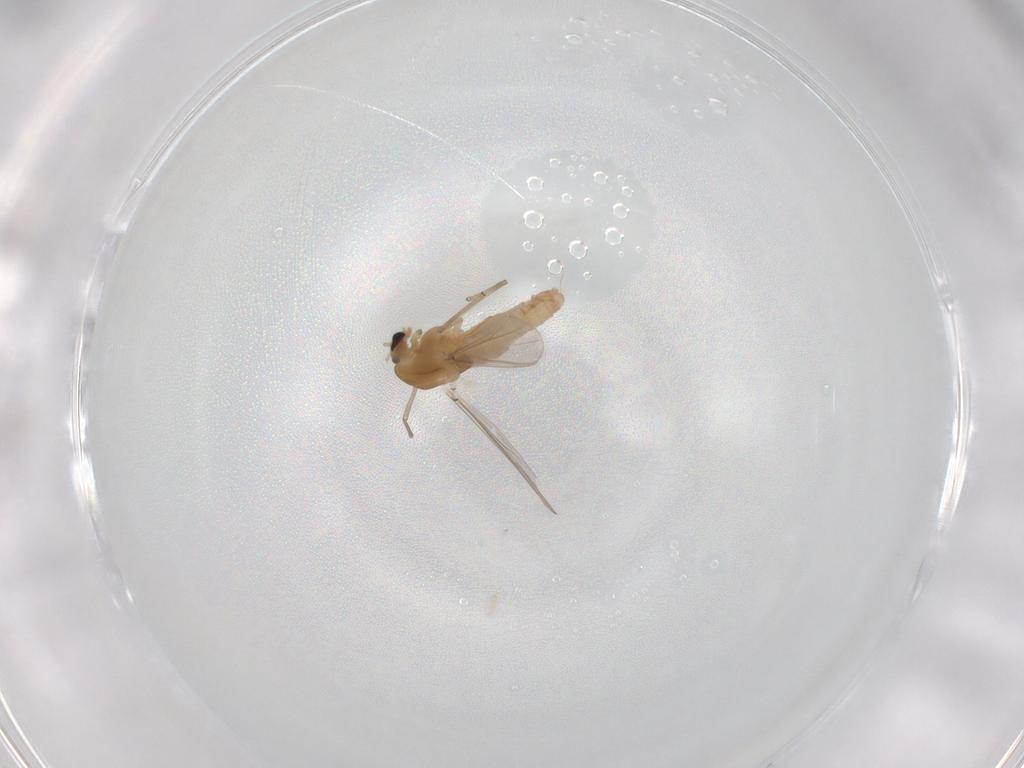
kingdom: Animalia
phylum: Arthropoda
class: Insecta
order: Diptera
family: Chironomidae
